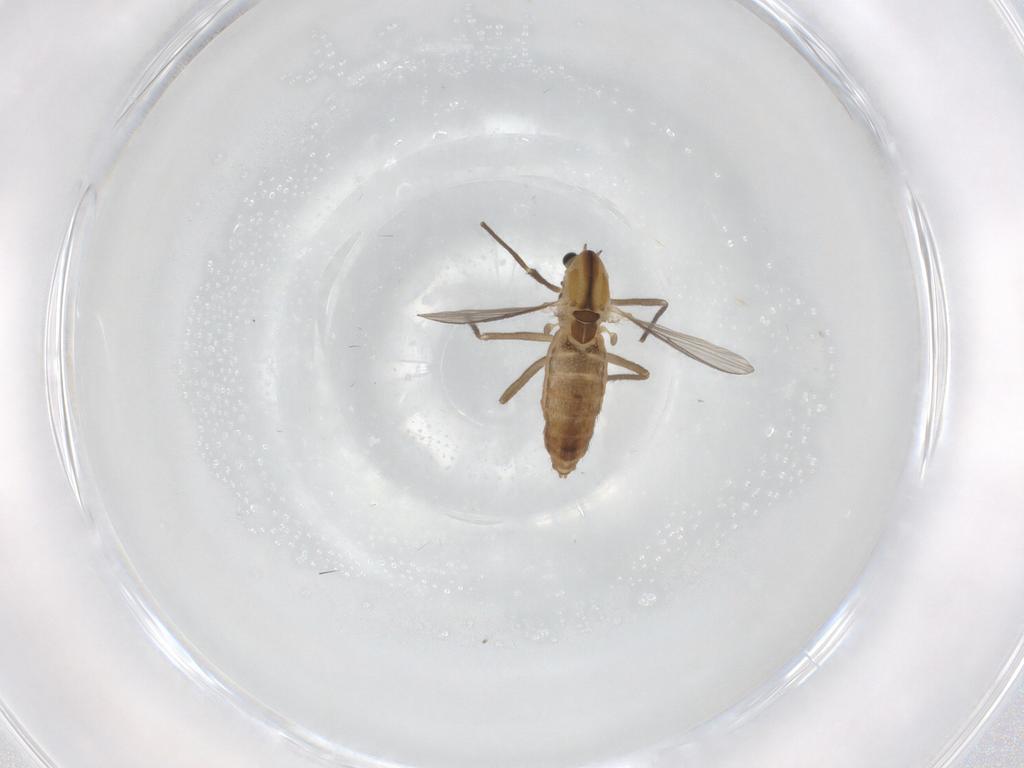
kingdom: Animalia
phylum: Arthropoda
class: Insecta
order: Diptera
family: Chironomidae
